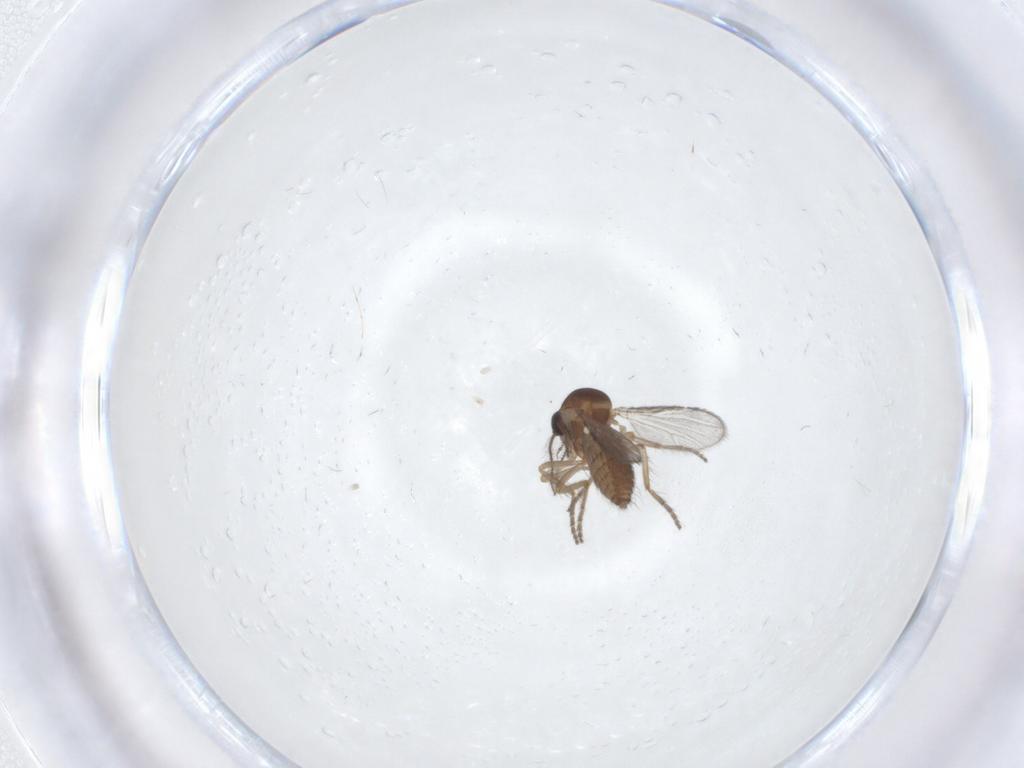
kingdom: Animalia
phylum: Arthropoda
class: Insecta
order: Diptera
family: Chironomidae
